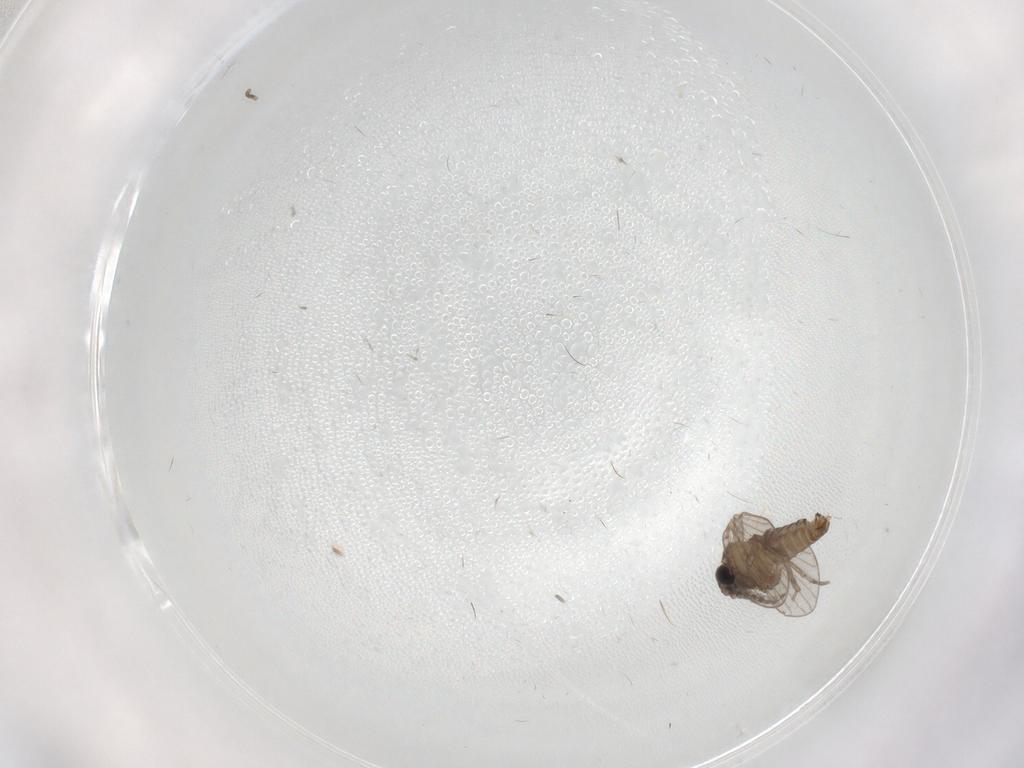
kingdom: Animalia
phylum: Arthropoda
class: Insecta
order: Diptera
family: Psychodidae
